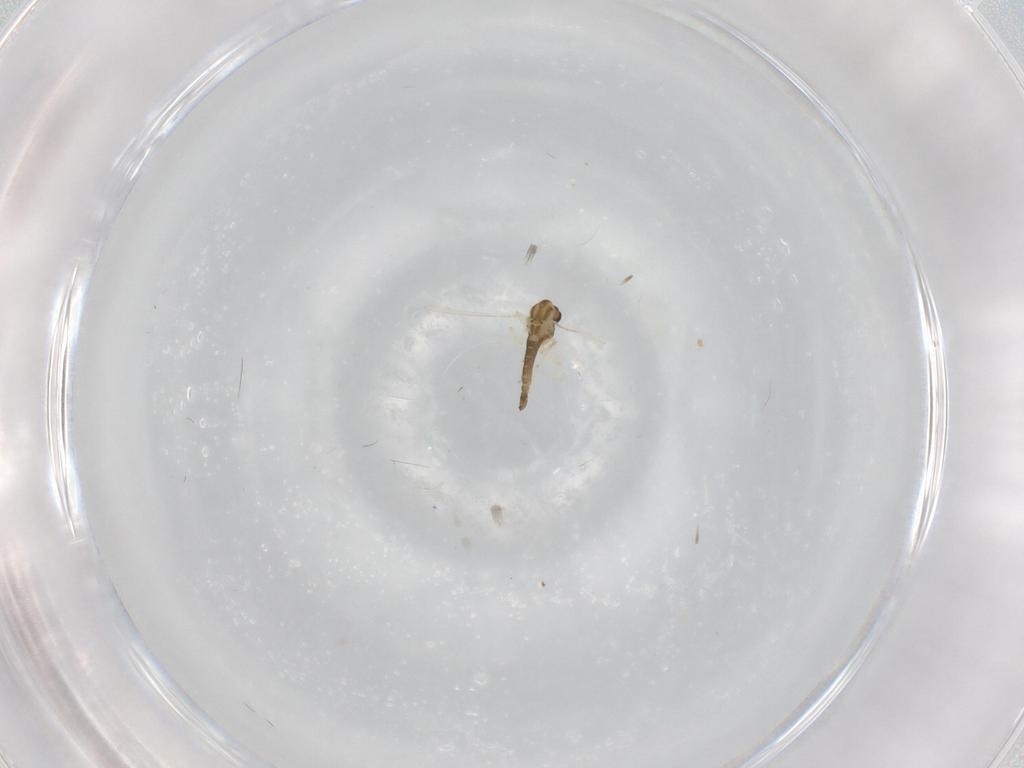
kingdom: Animalia
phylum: Arthropoda
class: Insecta
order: Diptera
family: Chironomidae
